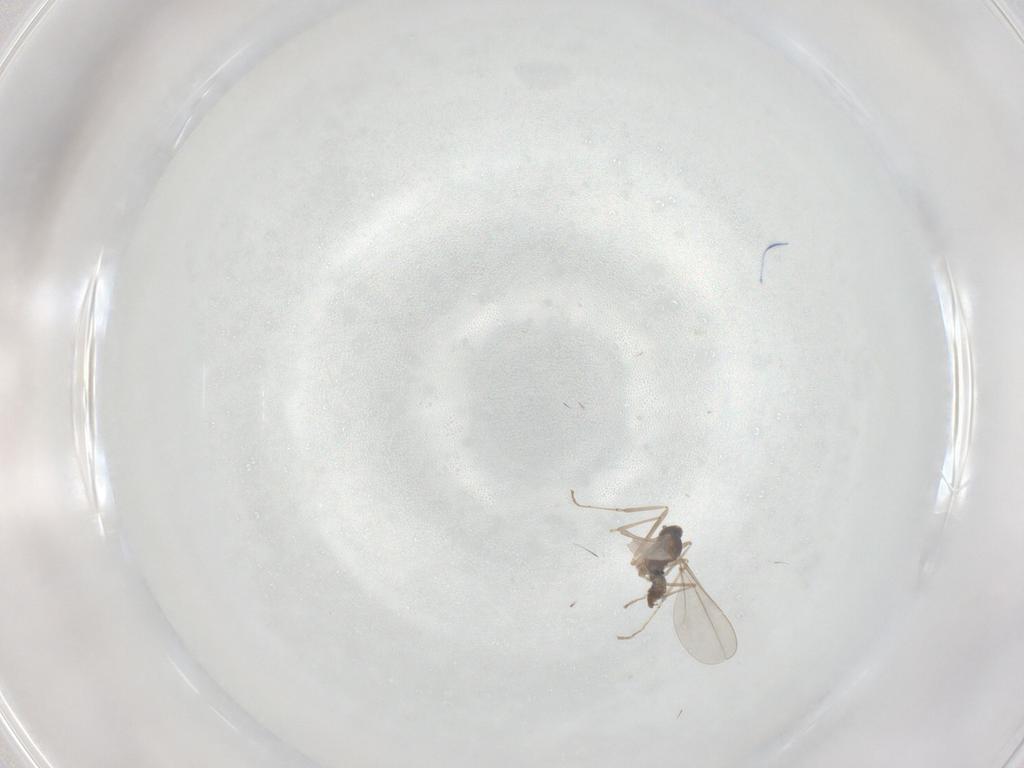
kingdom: Animalia
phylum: Arthropoda
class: Insecta
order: Diptera
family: Cecidomyiidae
